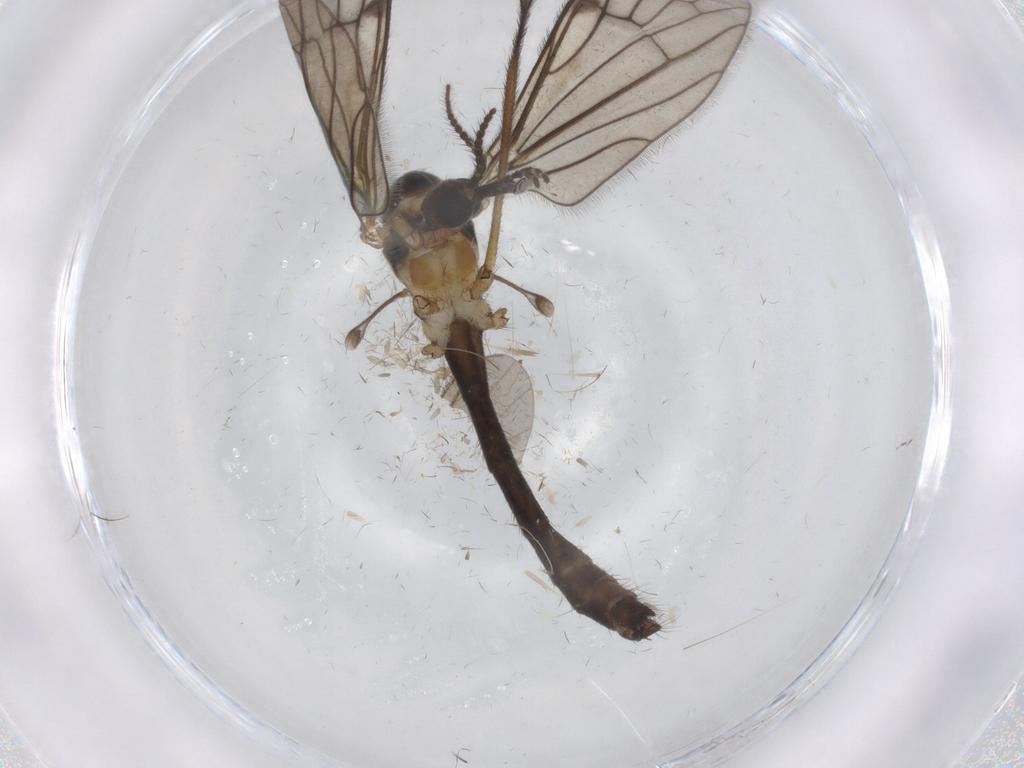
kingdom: Animalia
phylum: Arthropoda
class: Insecta
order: Diptera
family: Limoniidae
